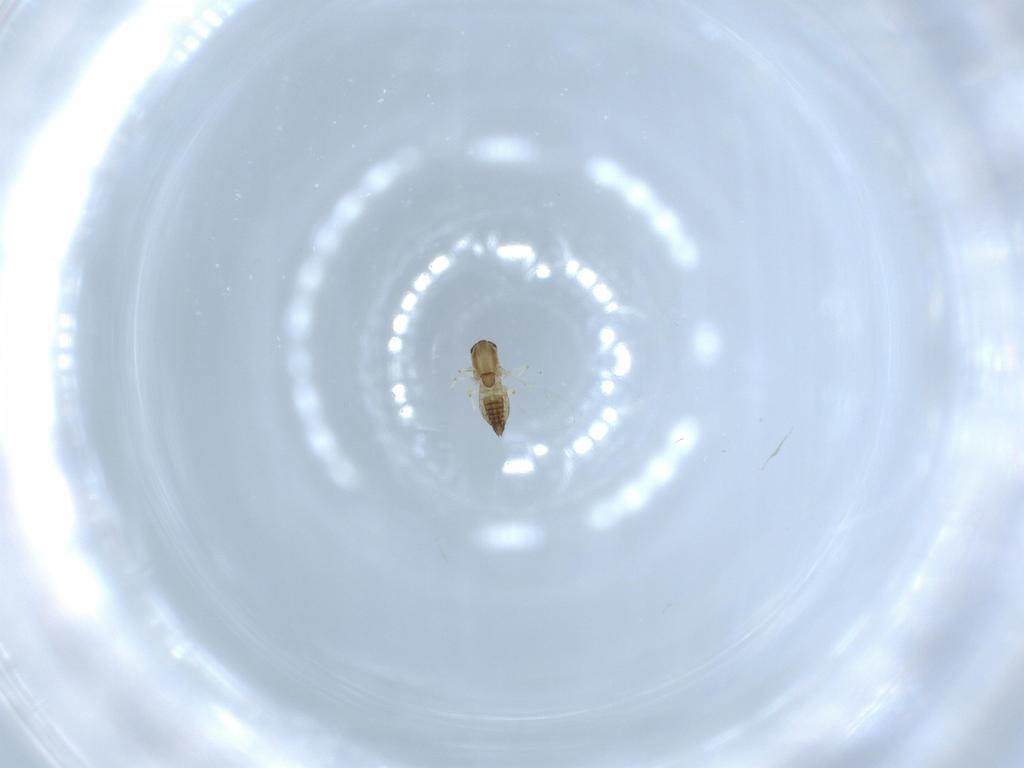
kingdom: Animalia
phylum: Arthropoda
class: Insecta
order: Diptera
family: Chironomidae
